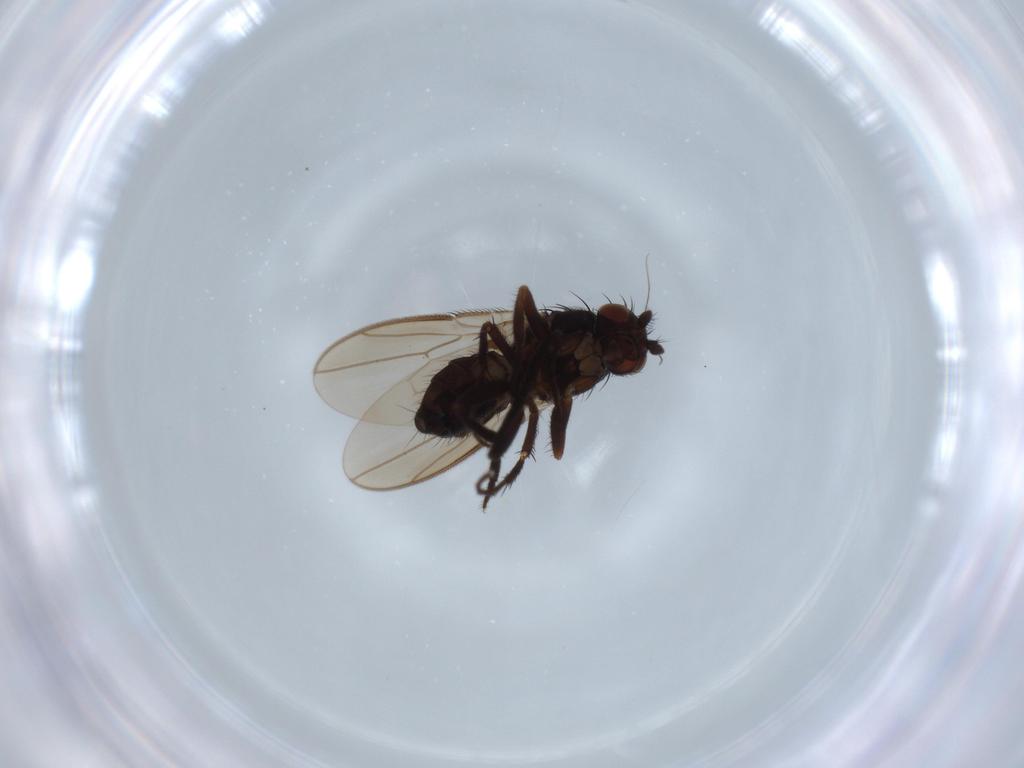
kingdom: Animalia
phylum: Arthropoda
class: Insecta
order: Diptera
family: Sphaeroceridae
